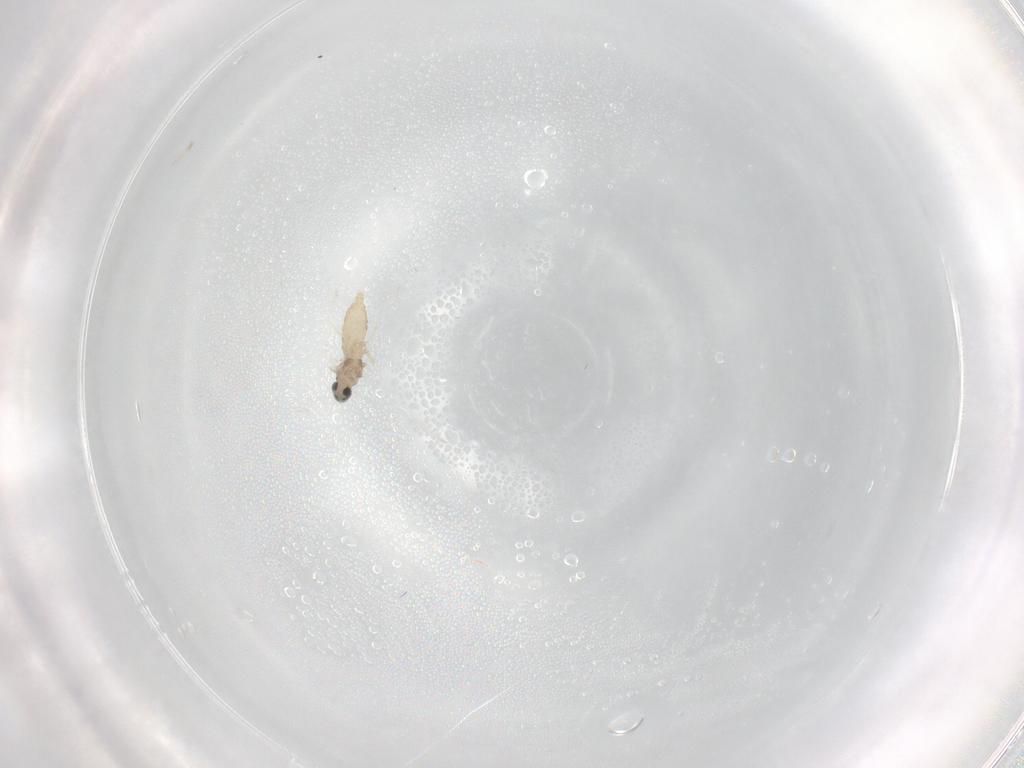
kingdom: Animalia
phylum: Arthropoda
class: Insecta
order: Diptera
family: Cecidomyiidae
